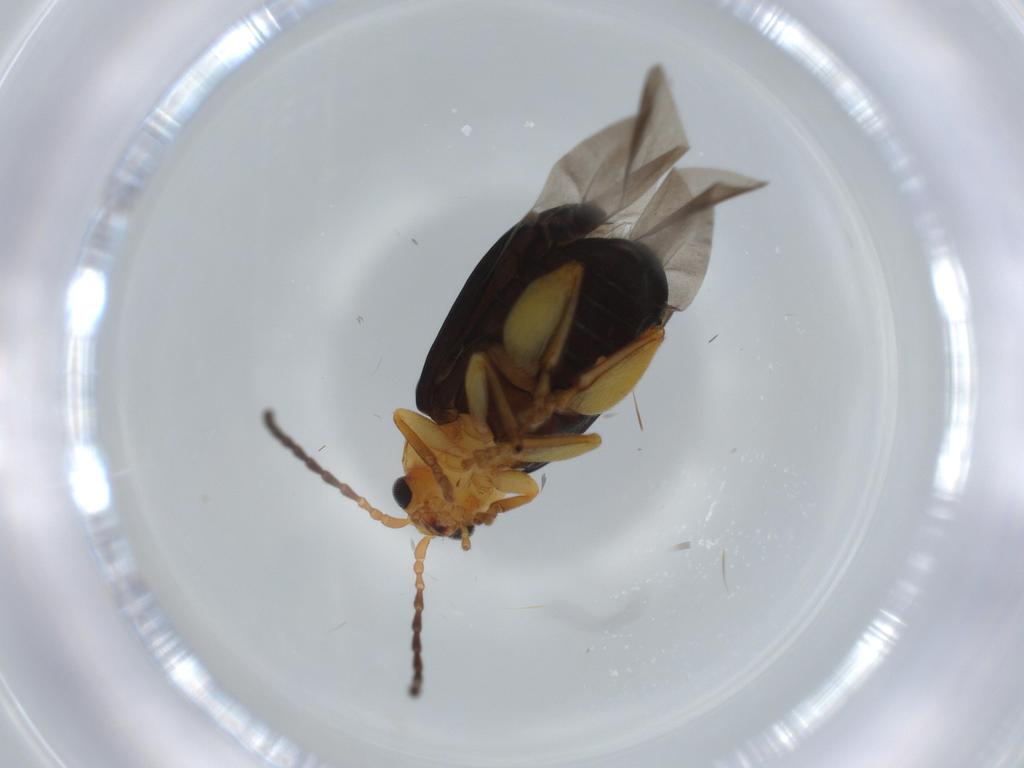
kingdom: Animalia
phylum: Arthropoda
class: Insecta
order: Coleoptera
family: Chrysomelidae
